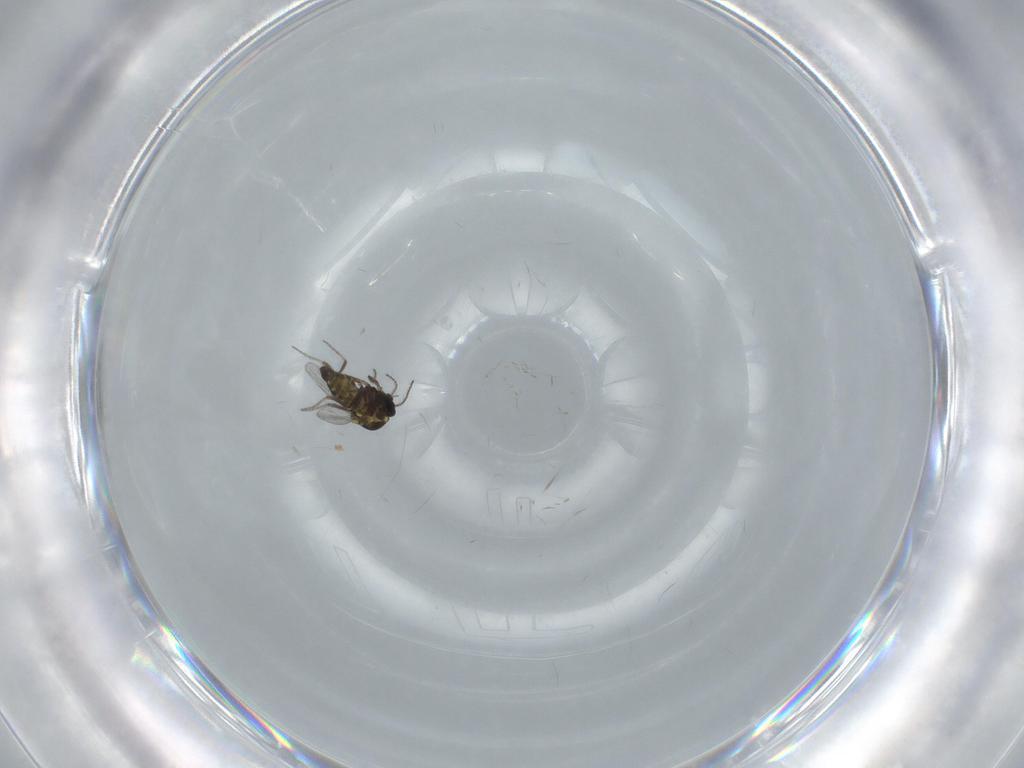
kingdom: Animalia
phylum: Arthropoda
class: Insecta
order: Diptera
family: Ceratopogonidae
